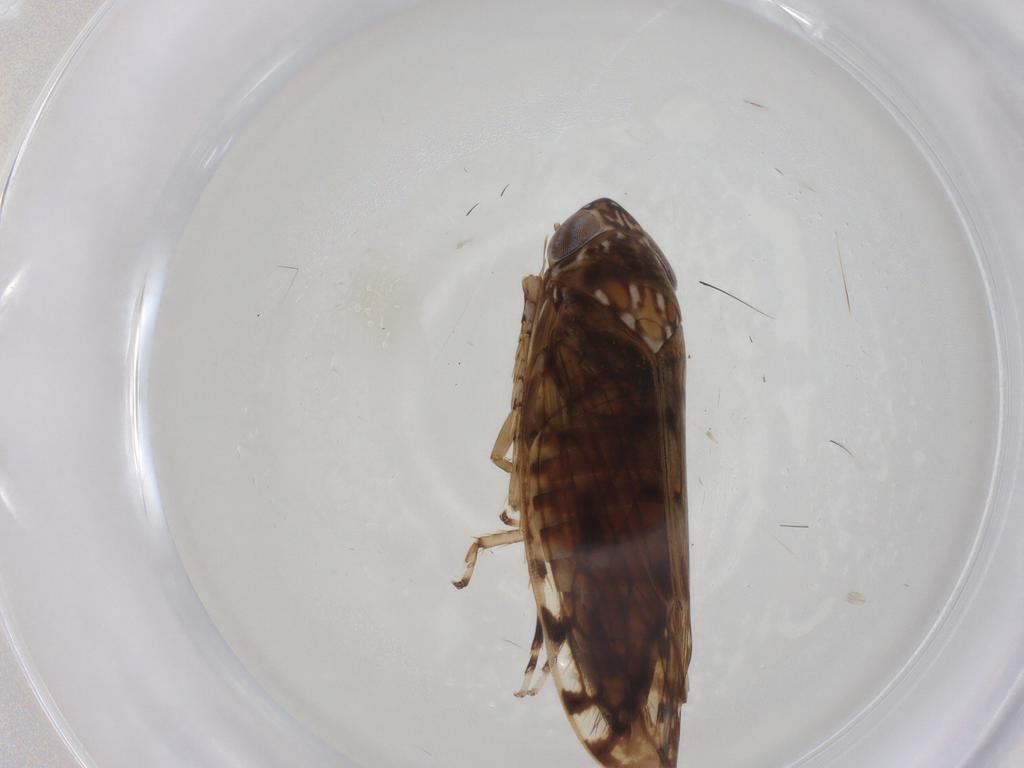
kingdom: Animalia
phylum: Arthropoda
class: Insecta
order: Hemiptera
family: Cicadellidae
